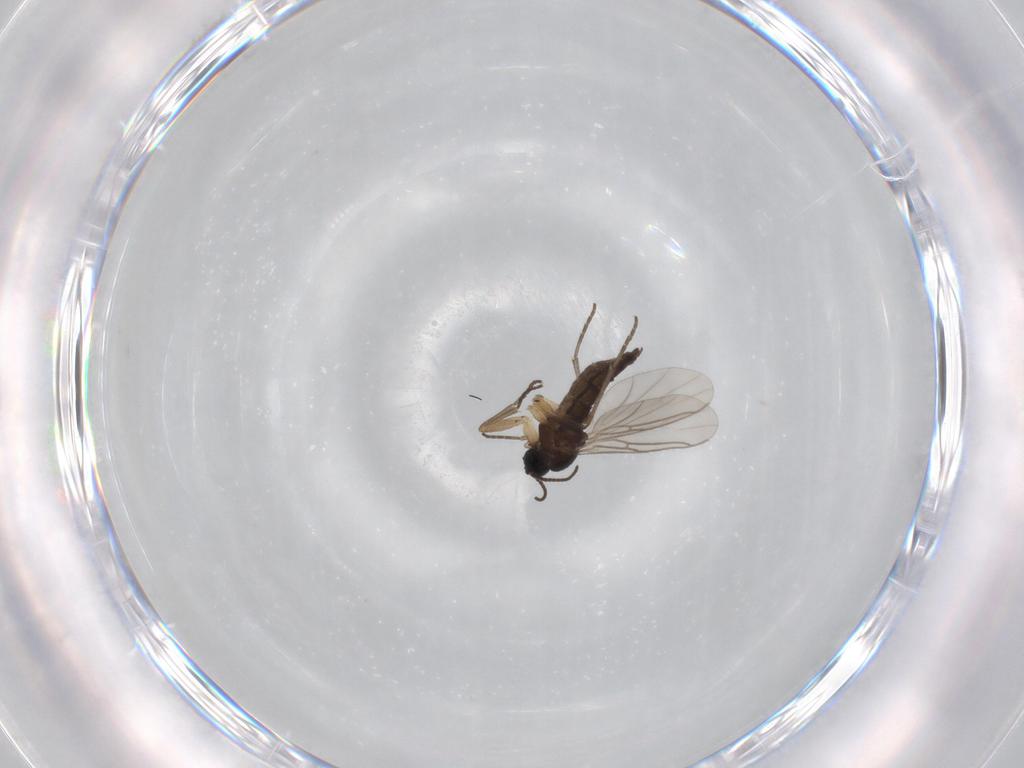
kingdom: Animalia
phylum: Arthropoda
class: Insecta
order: Diptera
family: Sciaridae
